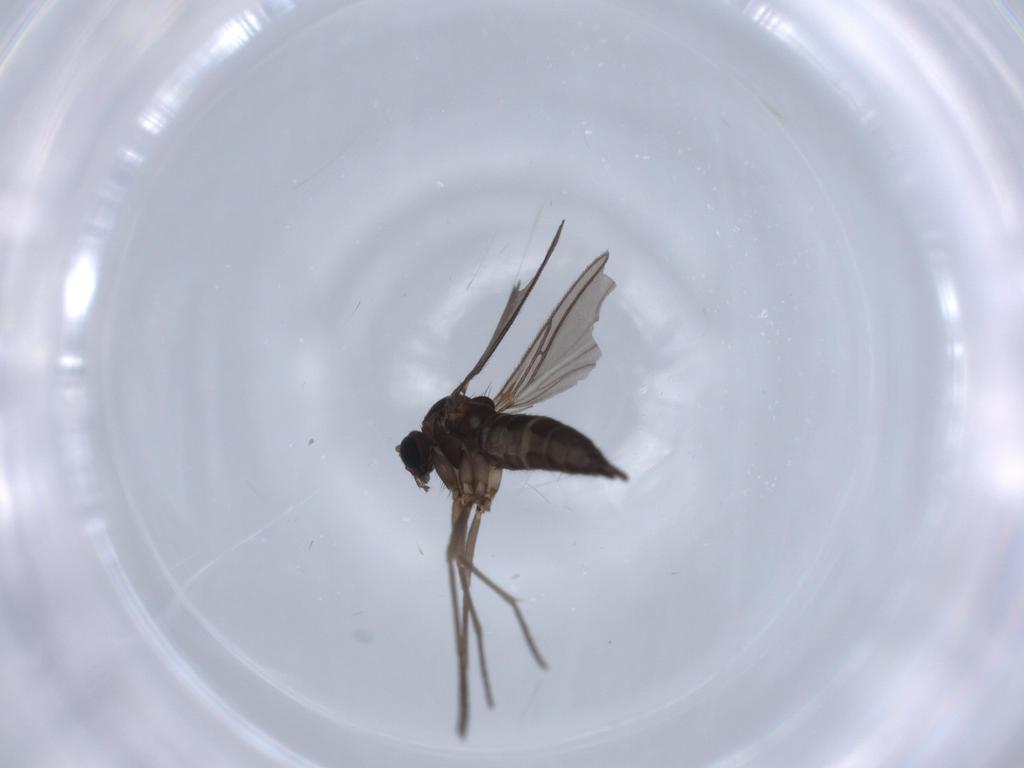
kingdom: Animalia
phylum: Arthropoda
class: Insecta
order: Diptera
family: Sciaridae
